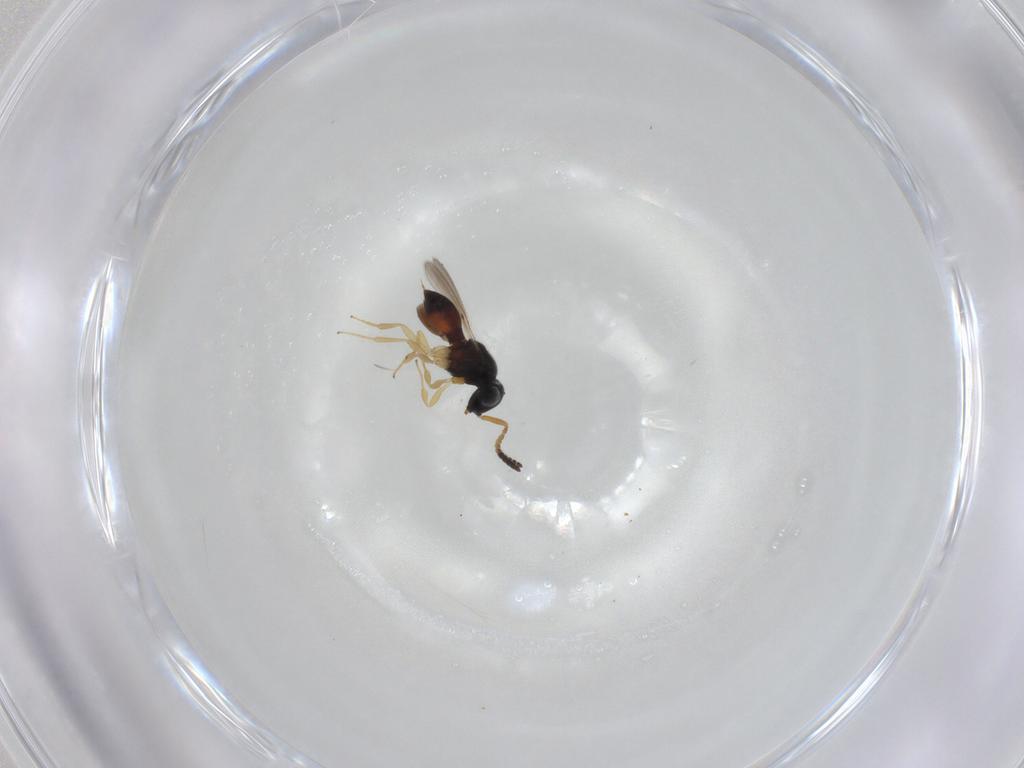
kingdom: Animalia
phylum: Arthropoda
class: Insecta
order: Hymenoptera
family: Scelionidae
